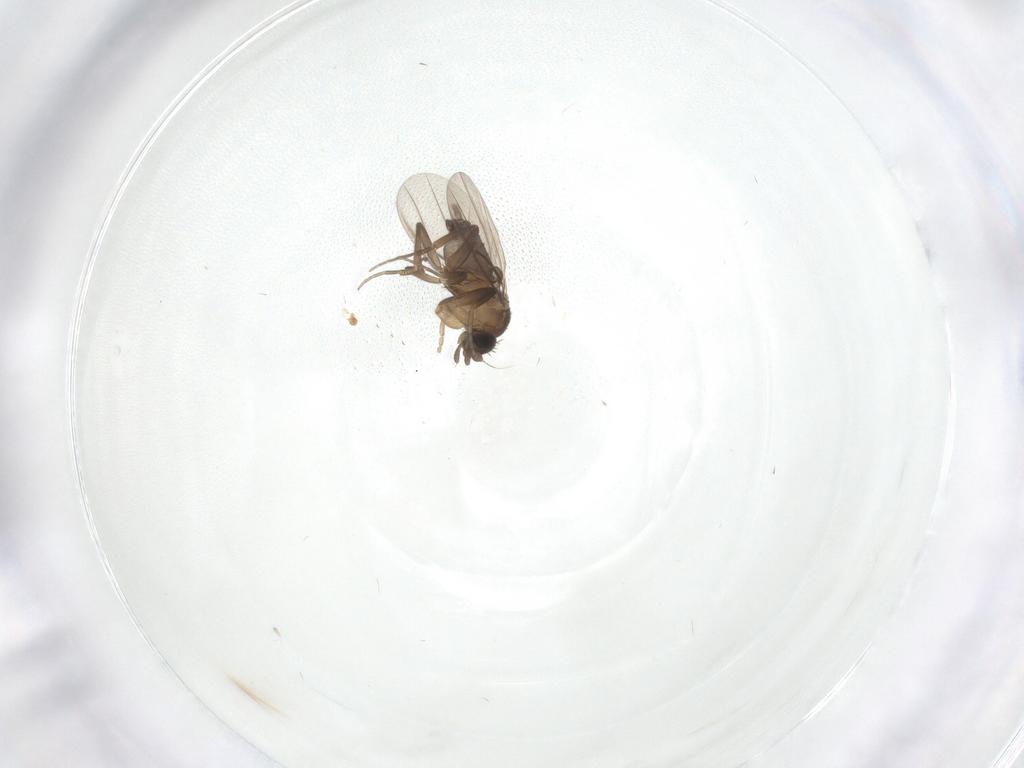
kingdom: Animalia
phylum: Arthropoda
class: Insecta
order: Diptera
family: Phoridae
